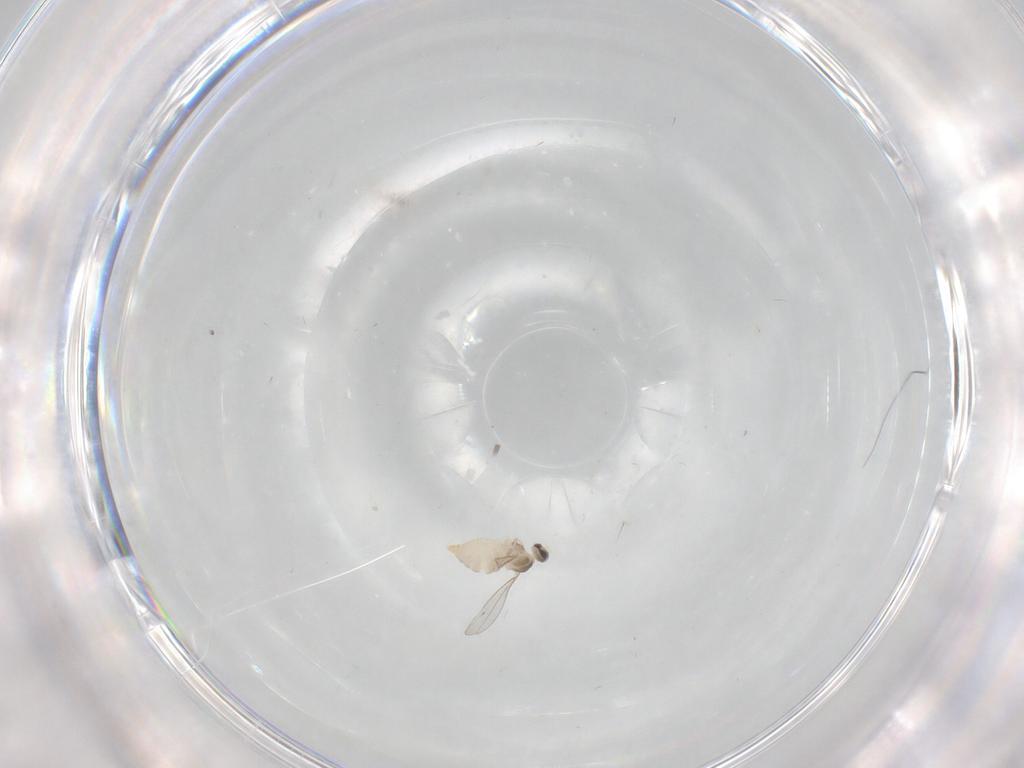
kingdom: Animalia
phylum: Arthropoda
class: Insecta
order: Diptera
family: Cecidomyiidae
